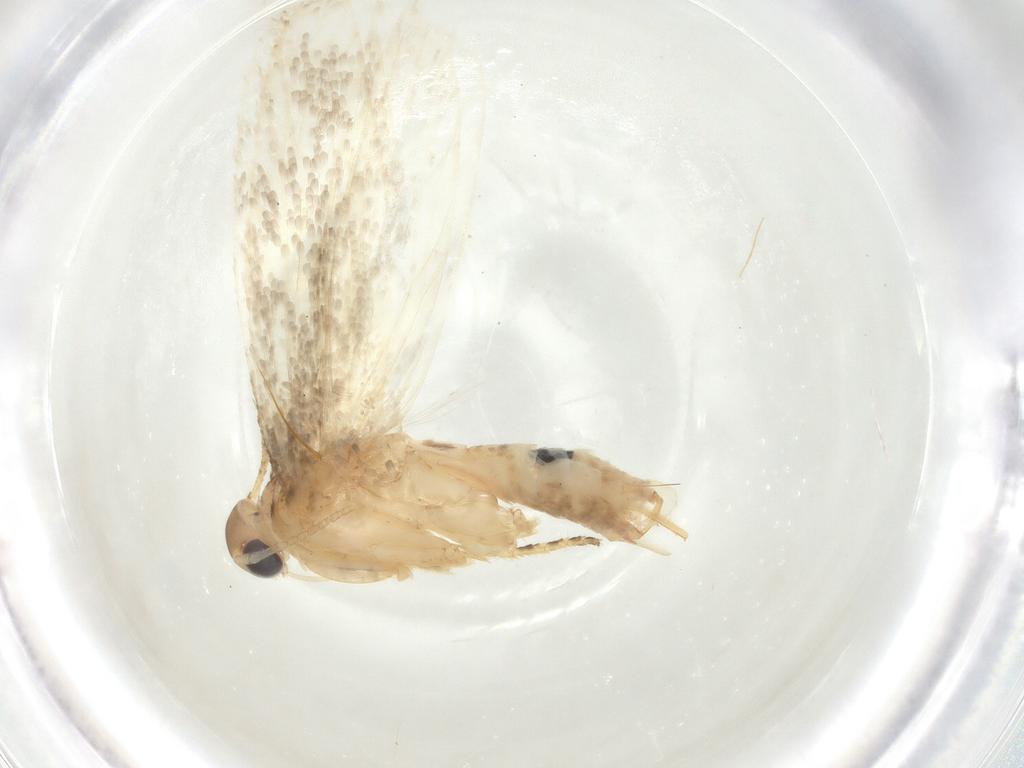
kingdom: Animalia
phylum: Arthropoda
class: Insecta
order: Lepidoptera
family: Gelechiidae
